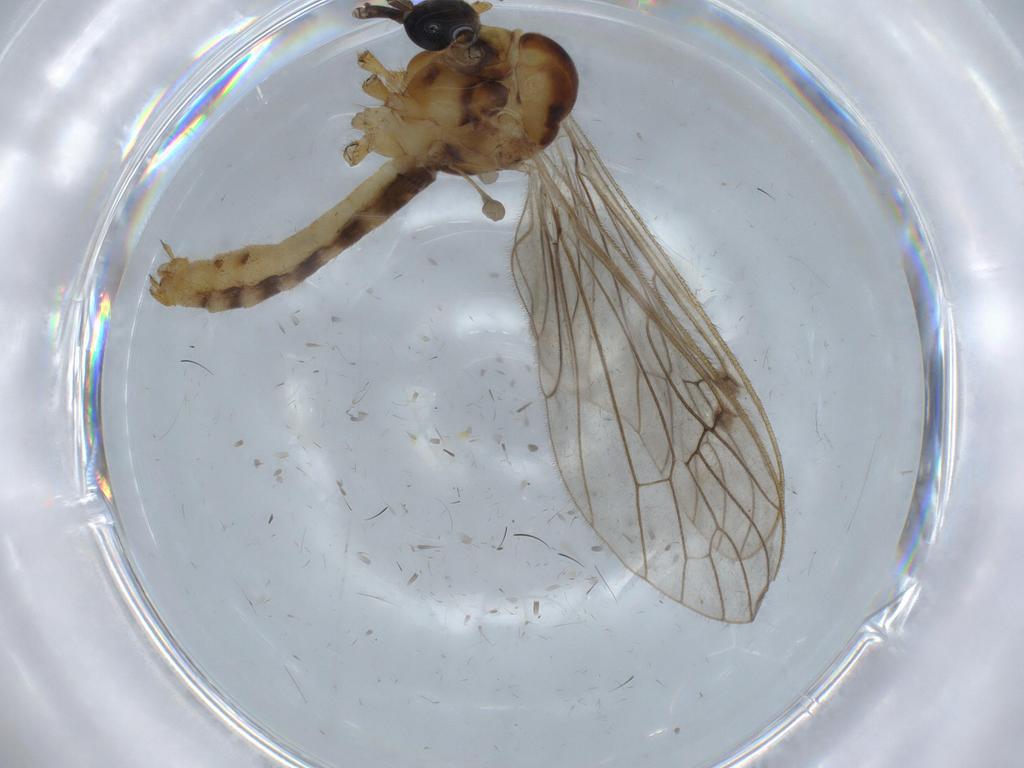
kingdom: Animalia
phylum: Arthropoda
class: Insecta
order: Diptera
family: Limoniidae
